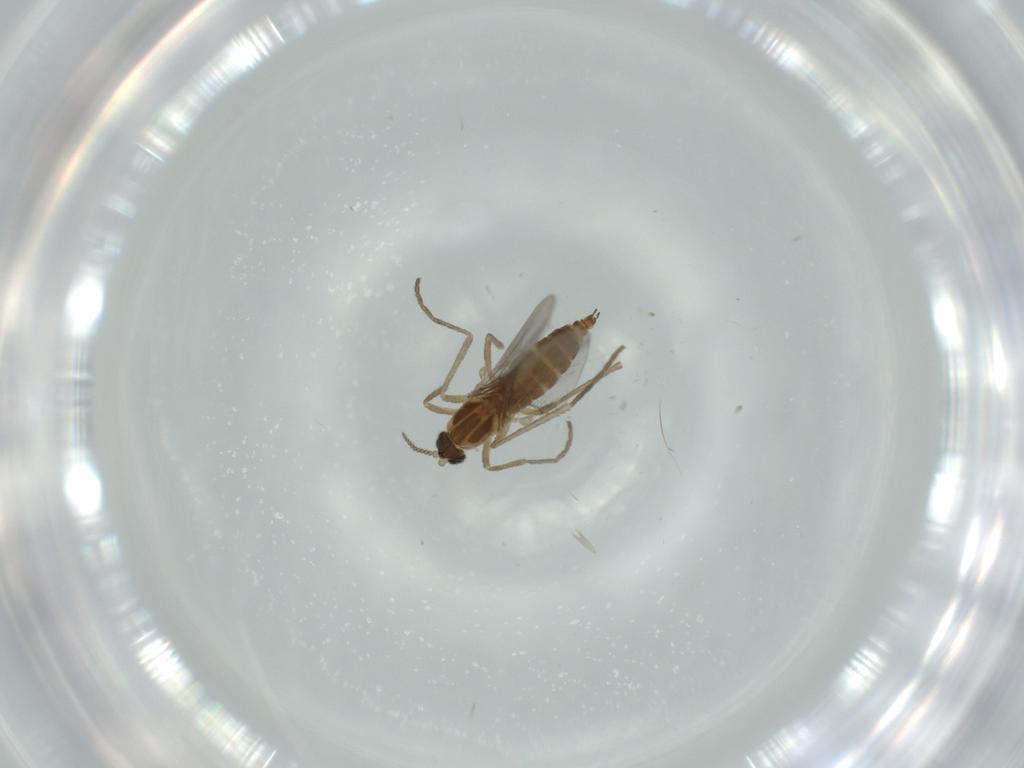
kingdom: Animalia
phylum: Arthropoda
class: Insecta
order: Diptera
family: Cecidomyiidae
